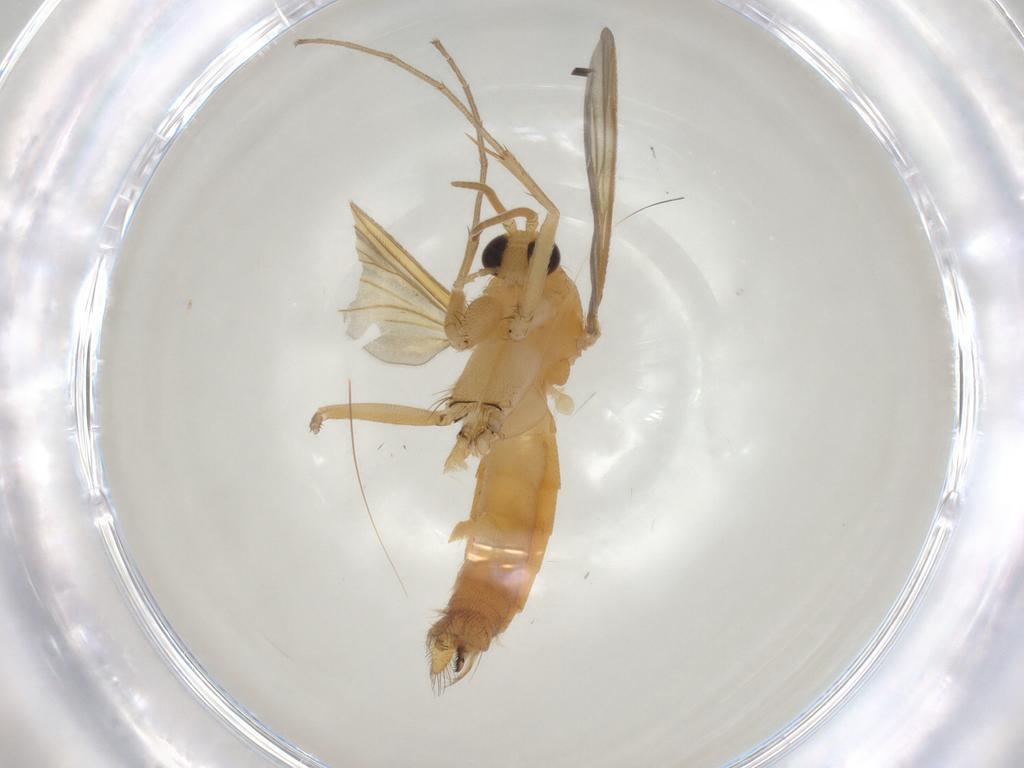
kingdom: Animalia
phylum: Arthropoda
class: Insecta
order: Diptera
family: Mycetophilidae
